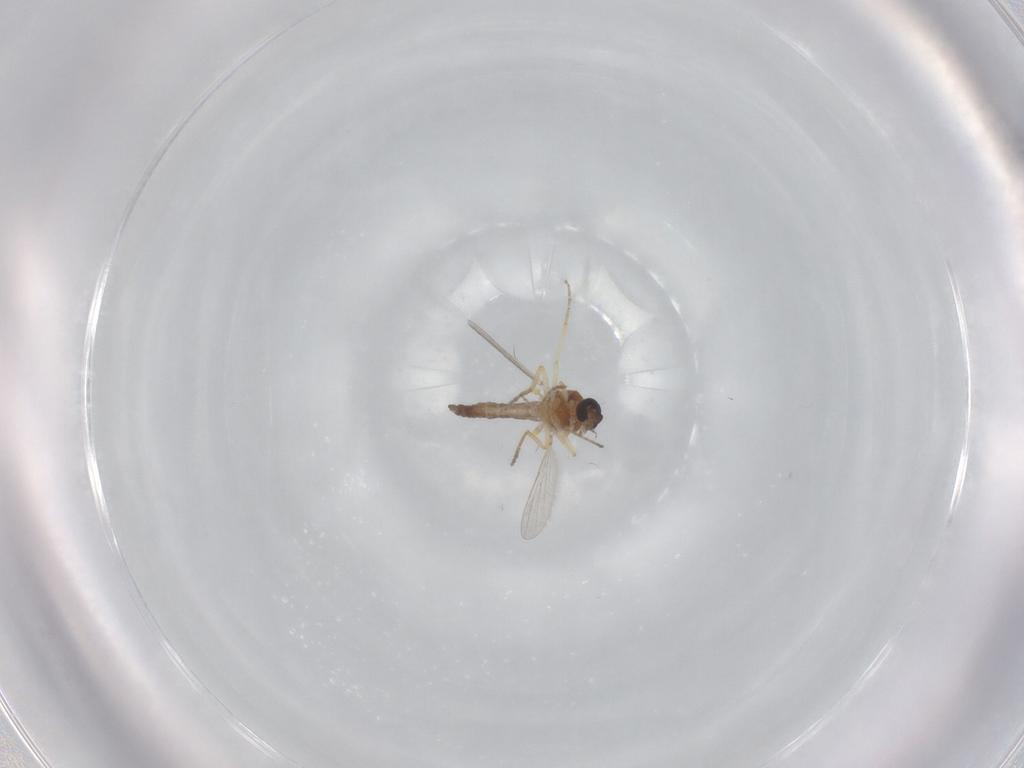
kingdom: Animalia
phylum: Arthropoda
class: Insecta
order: Diptera
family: Ceratopogonidae
